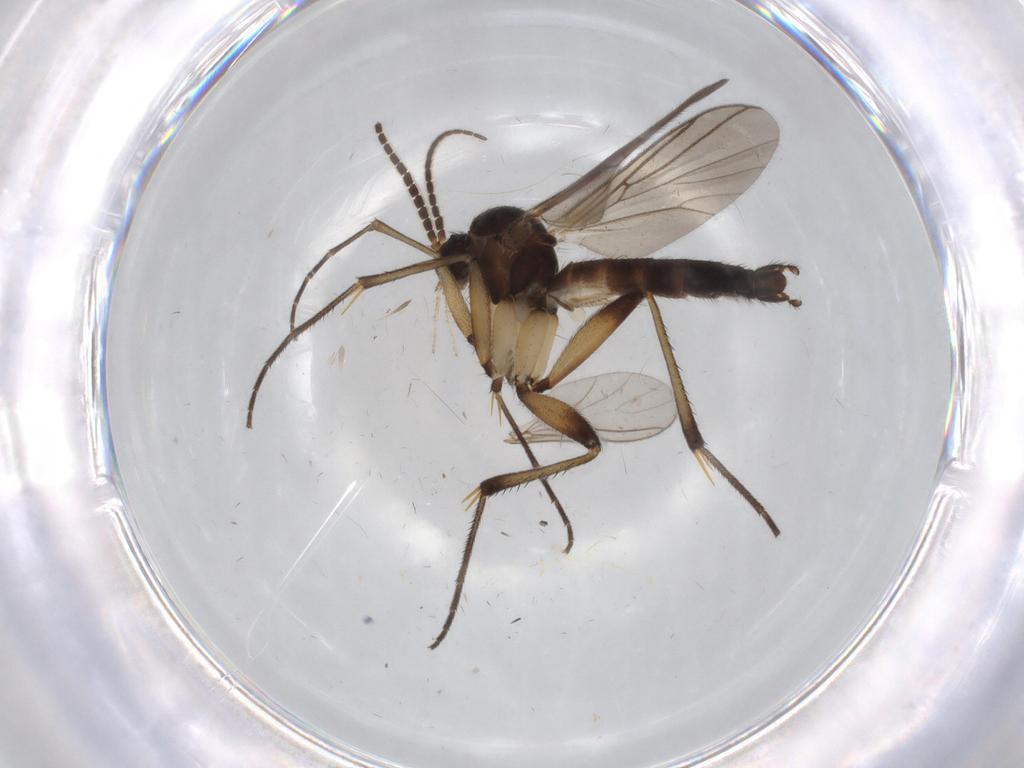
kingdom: Animalia
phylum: Arthropoda
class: Insecta
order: Diptera
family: Mycetophilidae
